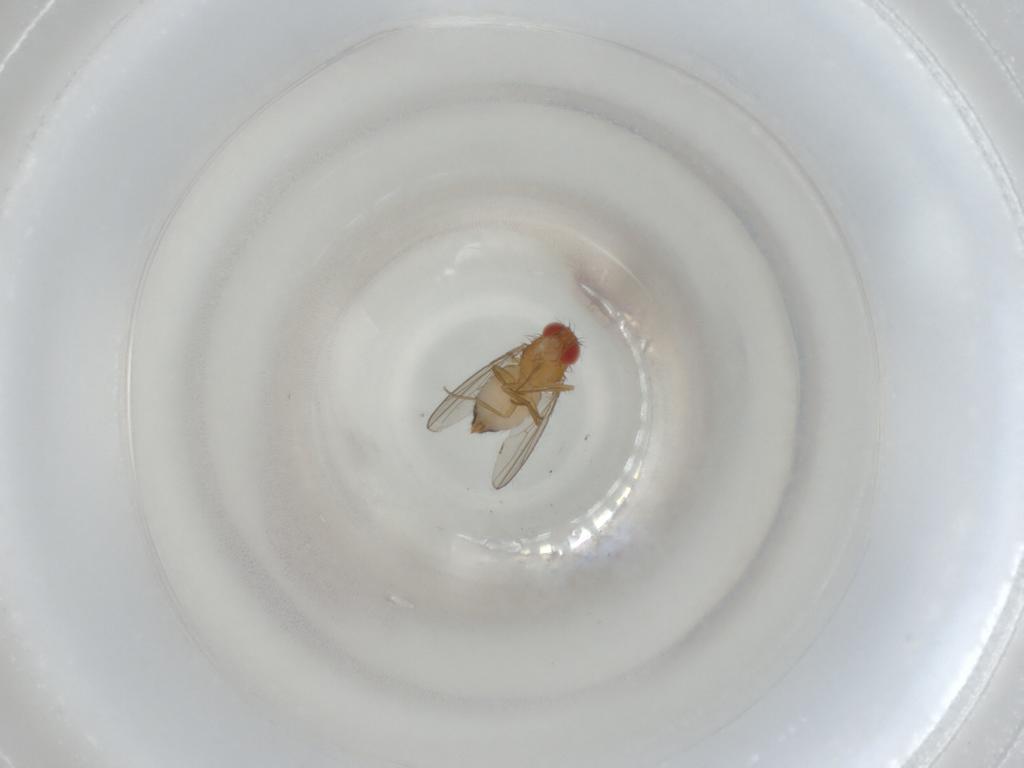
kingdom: Animalia
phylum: Arthropoda
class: Insecta
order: Diptera
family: Drosophilidae
